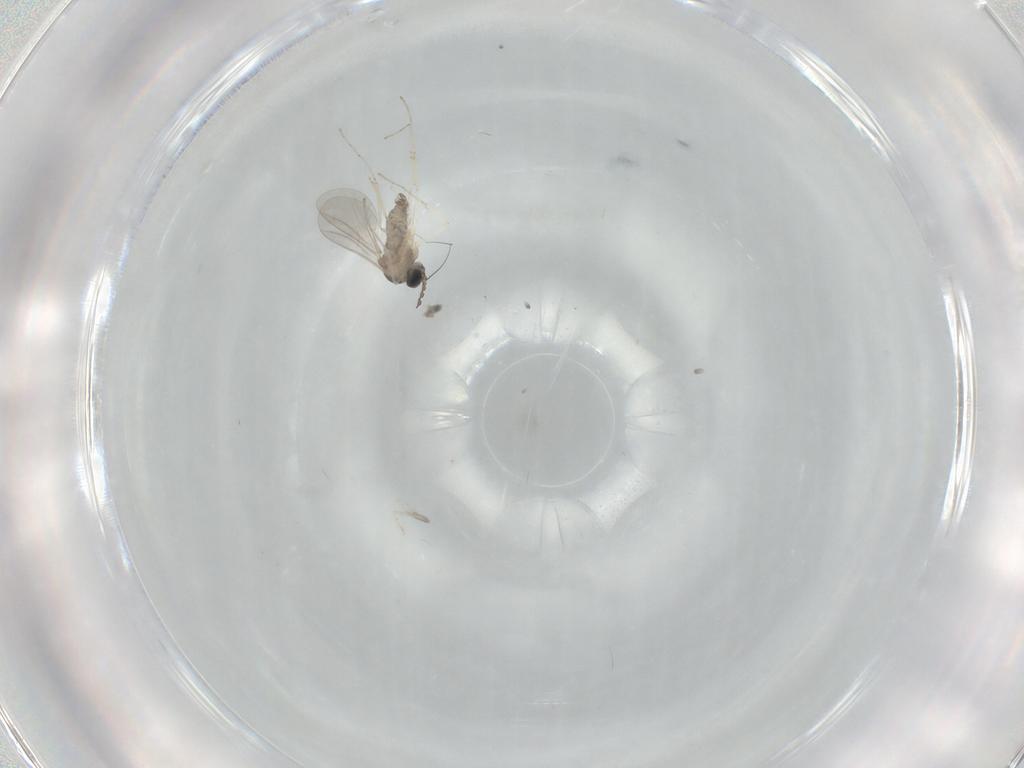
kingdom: Animalia
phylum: Arthropoda
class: Insecta
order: Diptera
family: Cecidomyiidae
